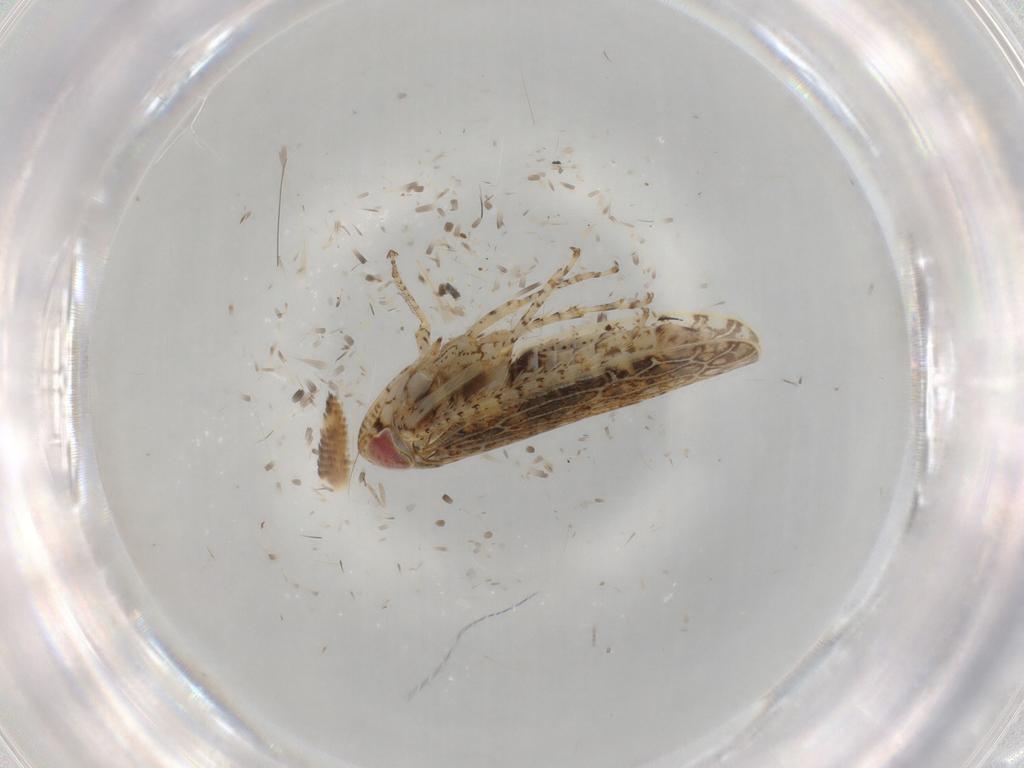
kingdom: Animalia
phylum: Arthropoda
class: Insecta
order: Hemiptera
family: Cicadellidae
